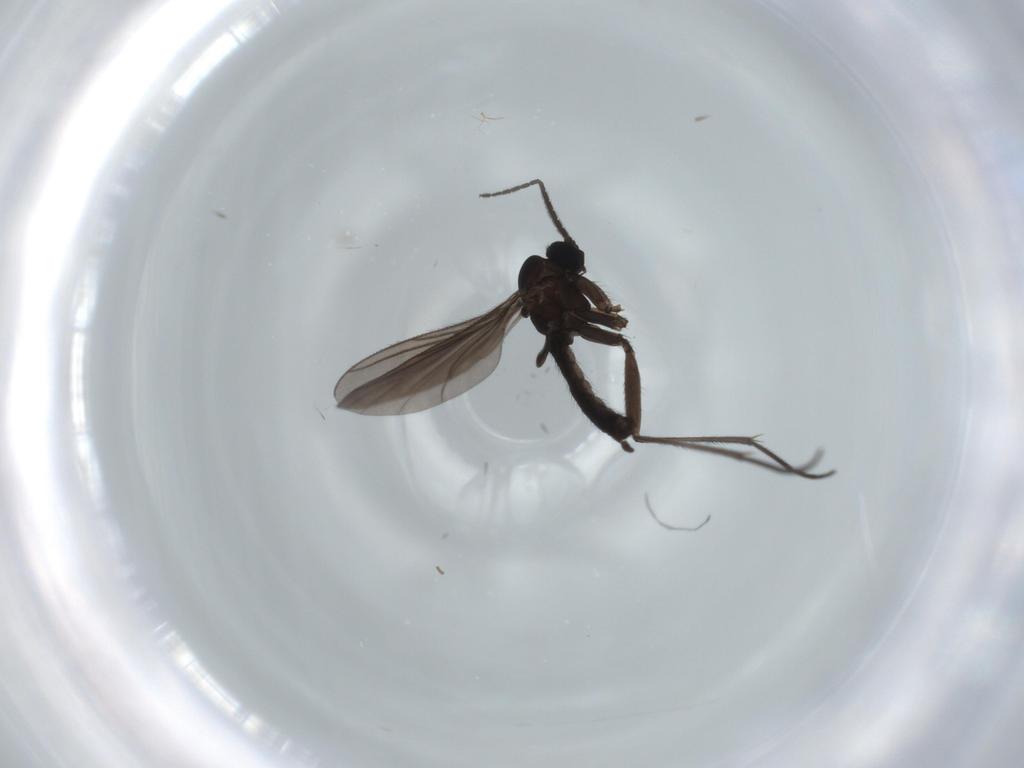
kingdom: Animalia
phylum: Arthropoda
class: Insecta
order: Diptera
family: Sciaridae
